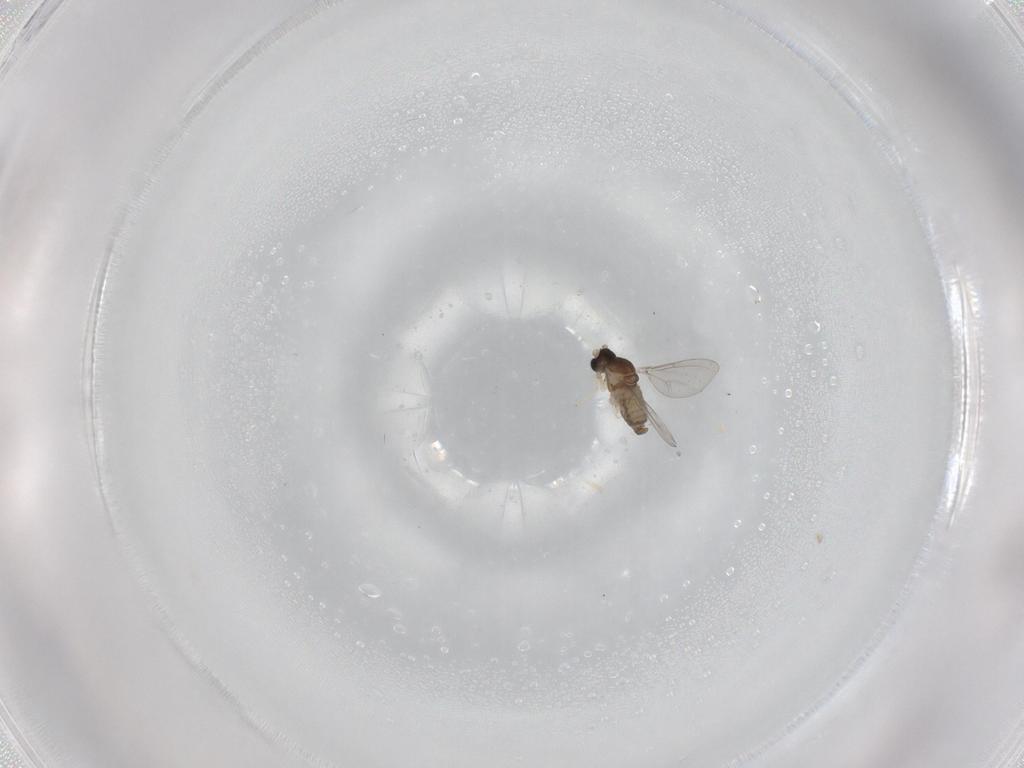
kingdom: Animalia
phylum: Arthropoda
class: Insecta
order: Diptera
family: Cecidomyiidae
